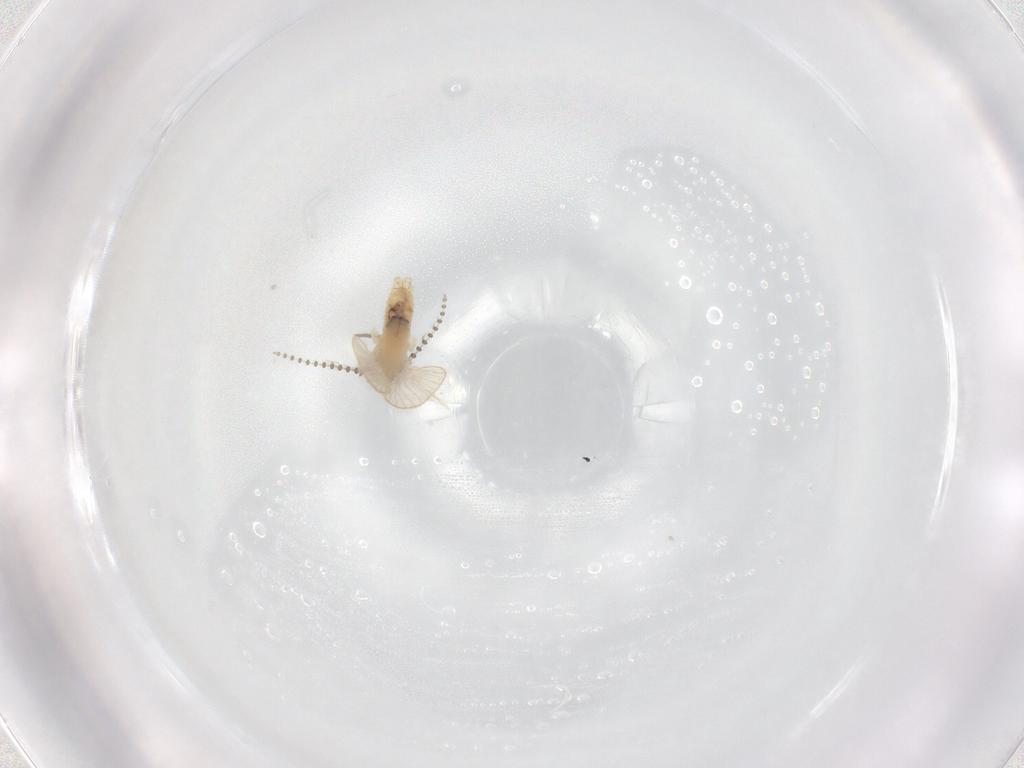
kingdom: Animalia
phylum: Arthropoda
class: Insecta
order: Diptera
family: Psychodidae
